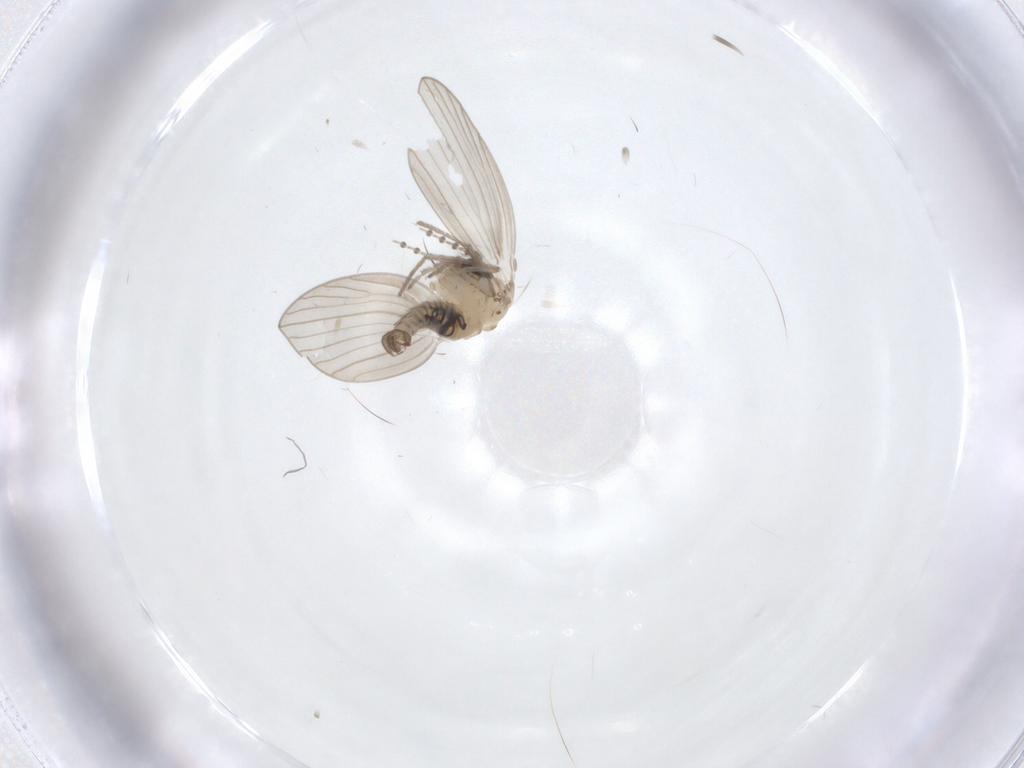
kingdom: Animalia
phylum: Arthropoda
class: Insecta
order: Diptera
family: Psychodidae
